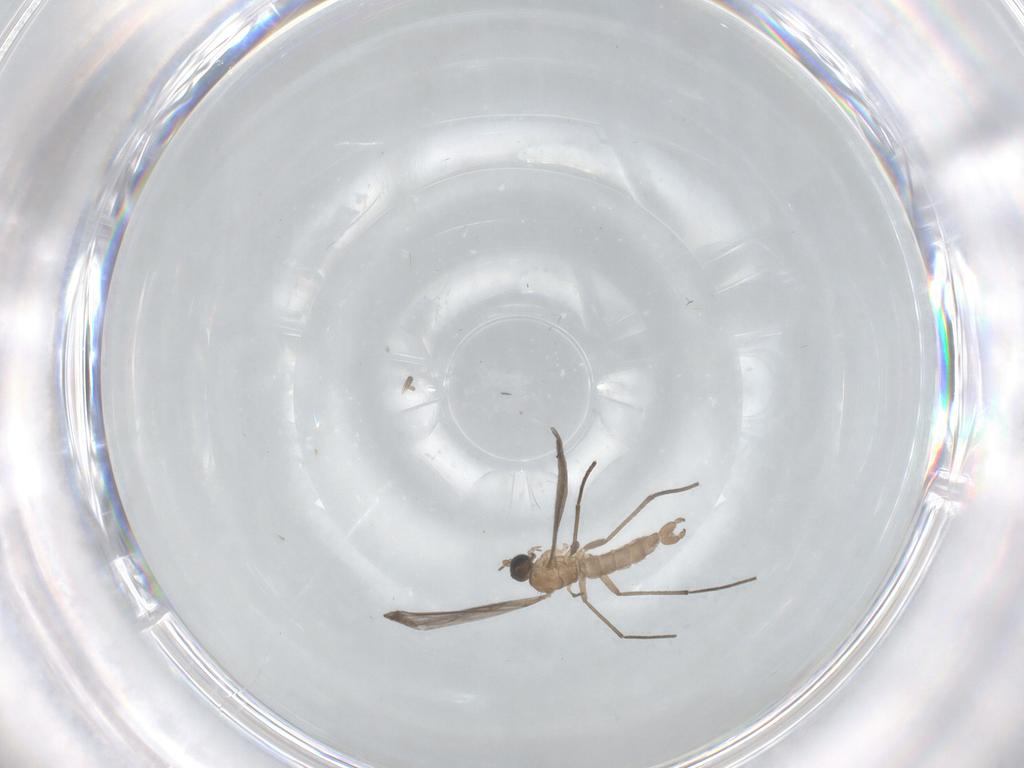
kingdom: Animalia
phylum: Arthropoda
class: Insecta
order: Diptera
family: Sciaridae
